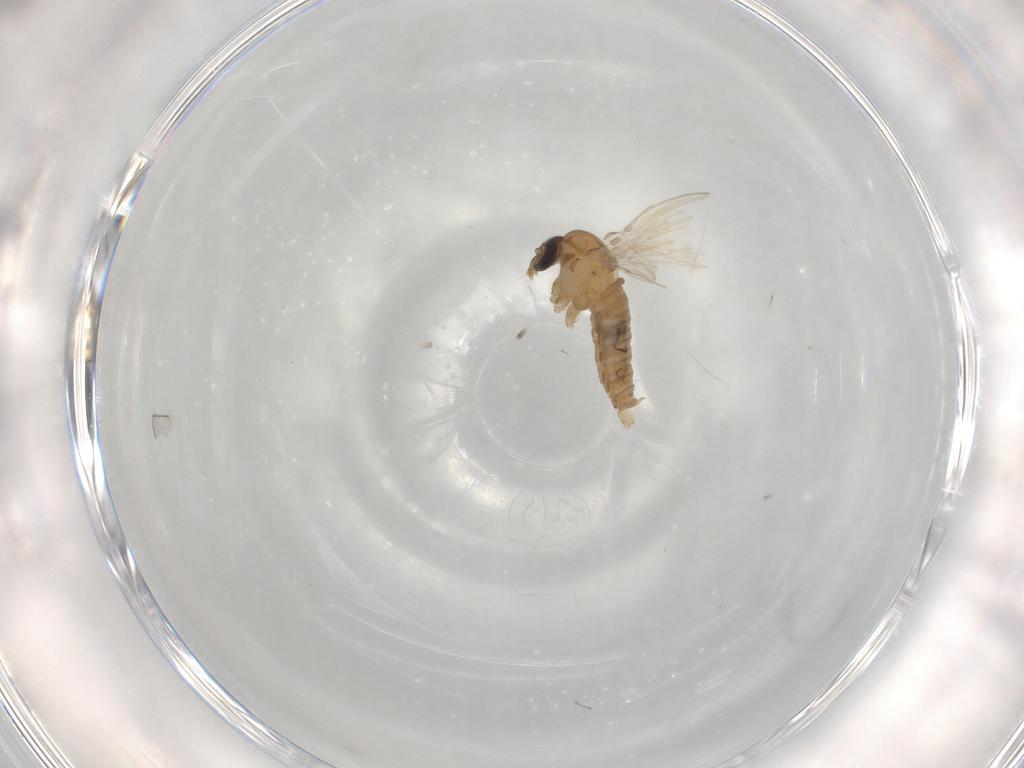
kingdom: Animalia
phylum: Arthropoda
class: Insecta
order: Diptera
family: Psychodidae
